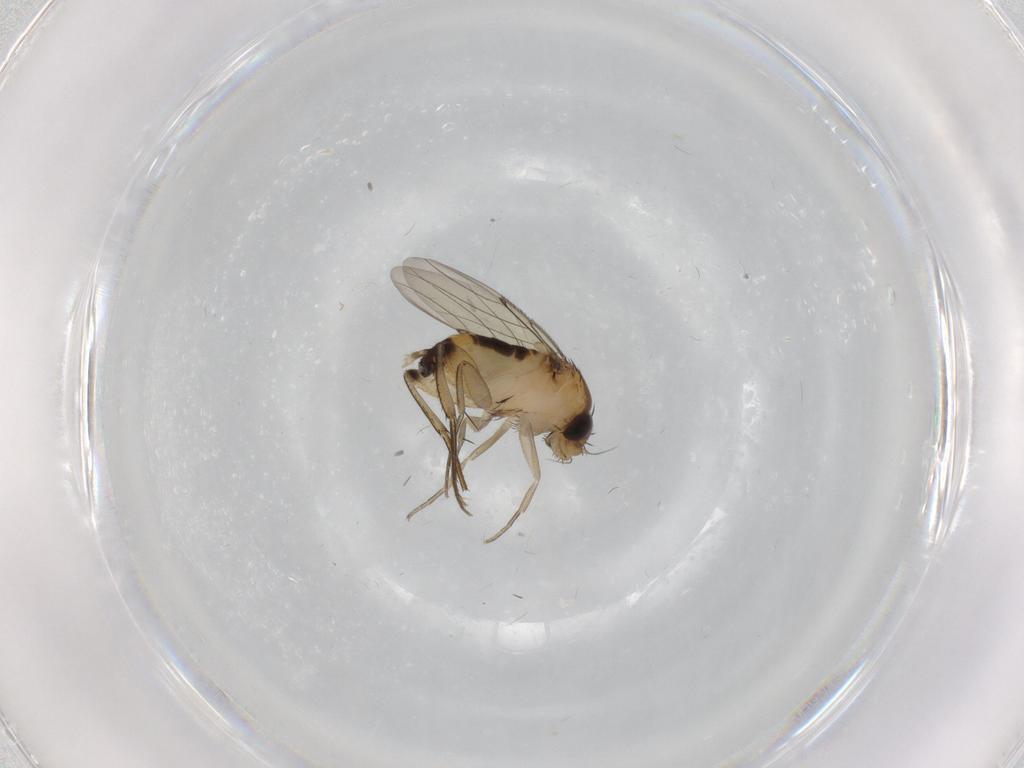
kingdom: Animalia
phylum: Arthropoda
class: Insecta
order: Diptera
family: Phoridae
